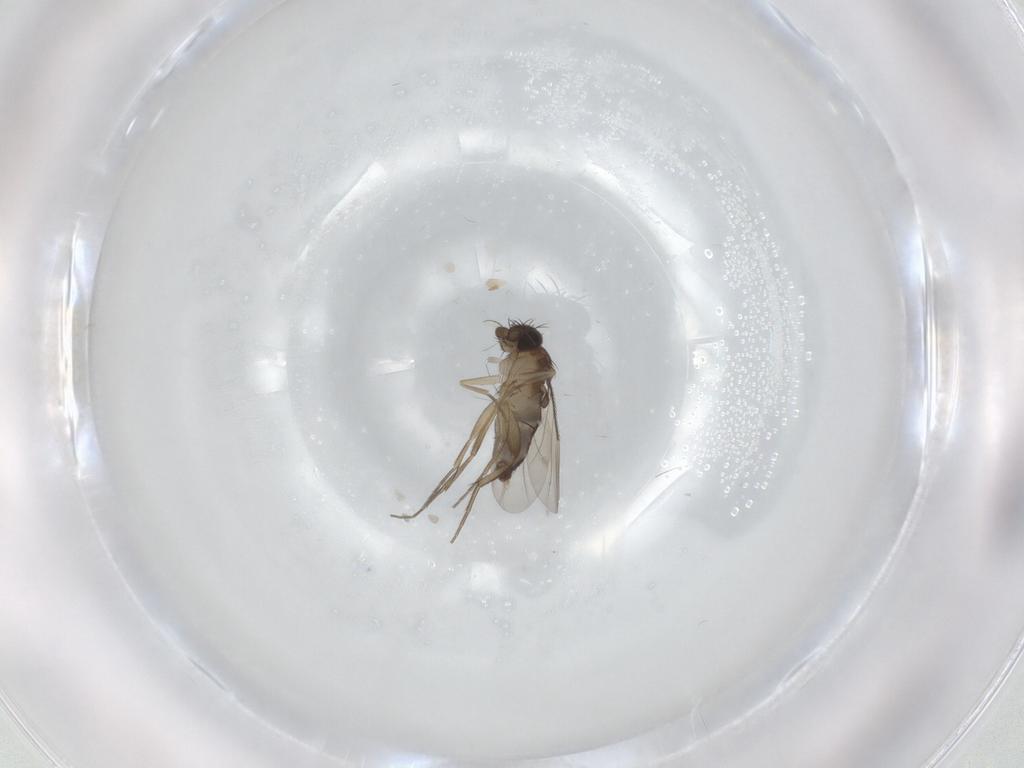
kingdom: Animalia
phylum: Arthropoda
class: Insecta
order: Diptera
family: Phoridae
